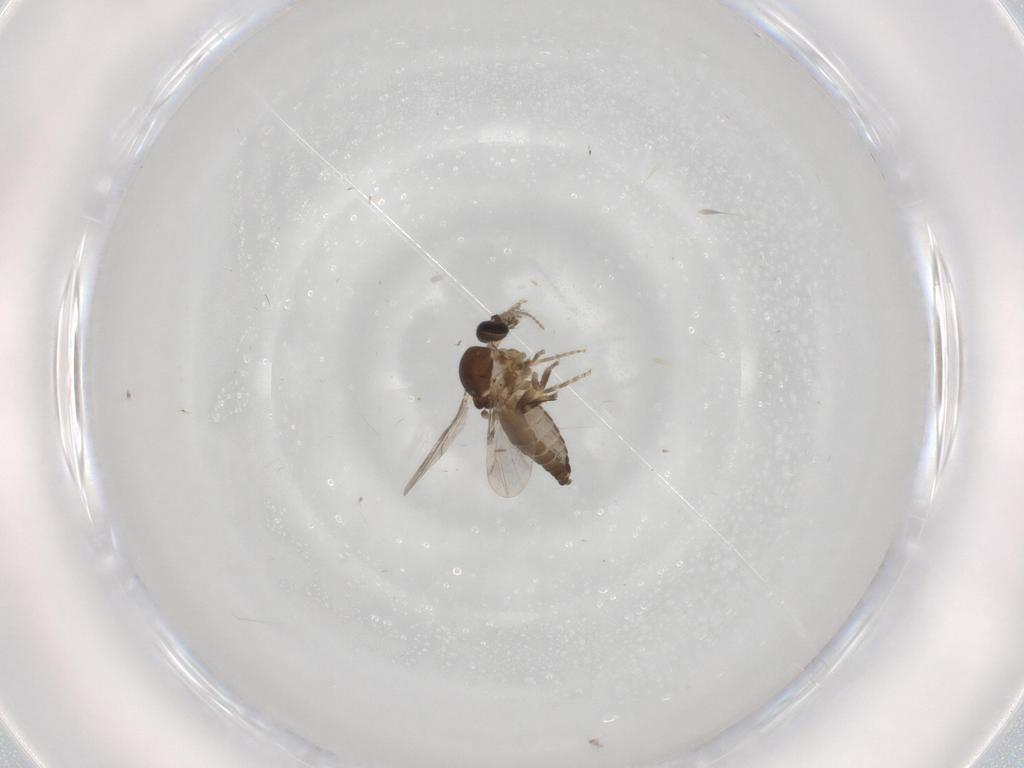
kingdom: Animalia
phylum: Arthropoda
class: Insecta
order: Diptera
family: Ceratopogonidae
